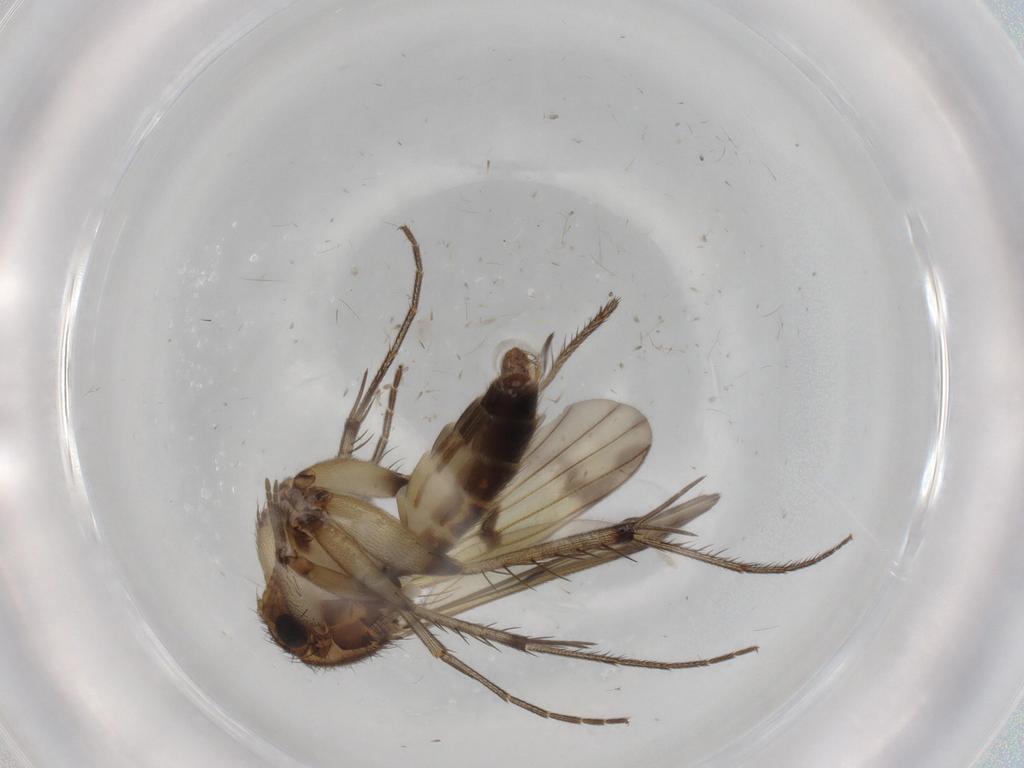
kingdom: Animalia
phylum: Arthropoda
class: Insecta
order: Diptera
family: Mycetophilidae
